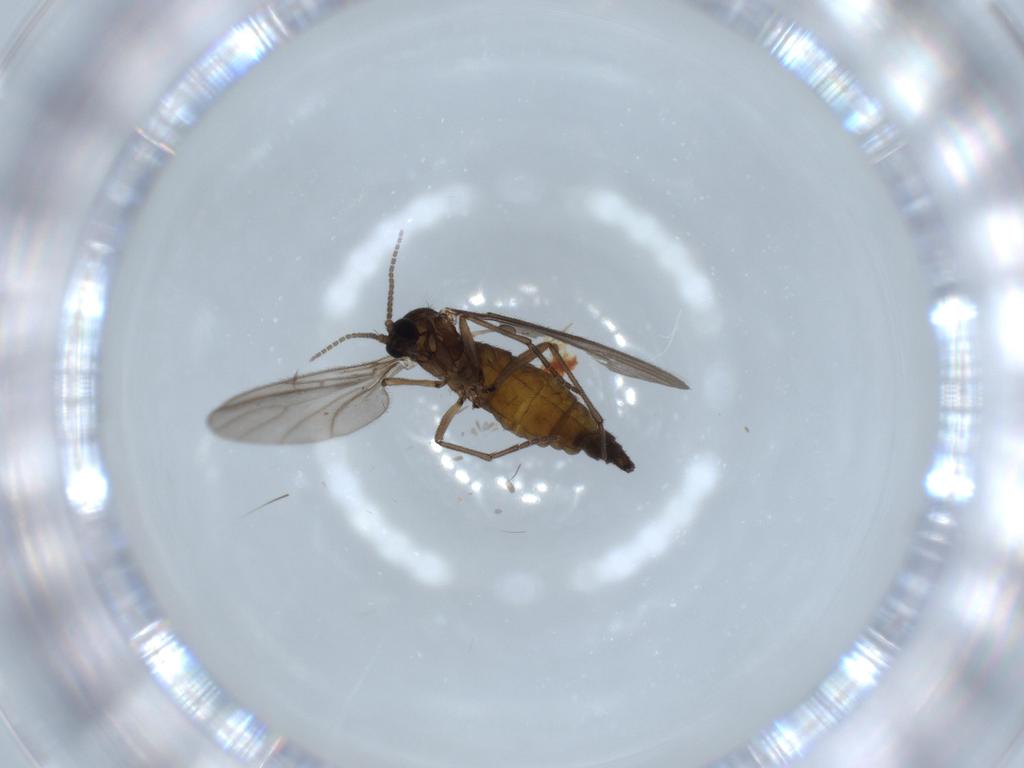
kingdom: Animalia
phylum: Arthropoda
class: Insecta
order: Diptera
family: Sciaridae
